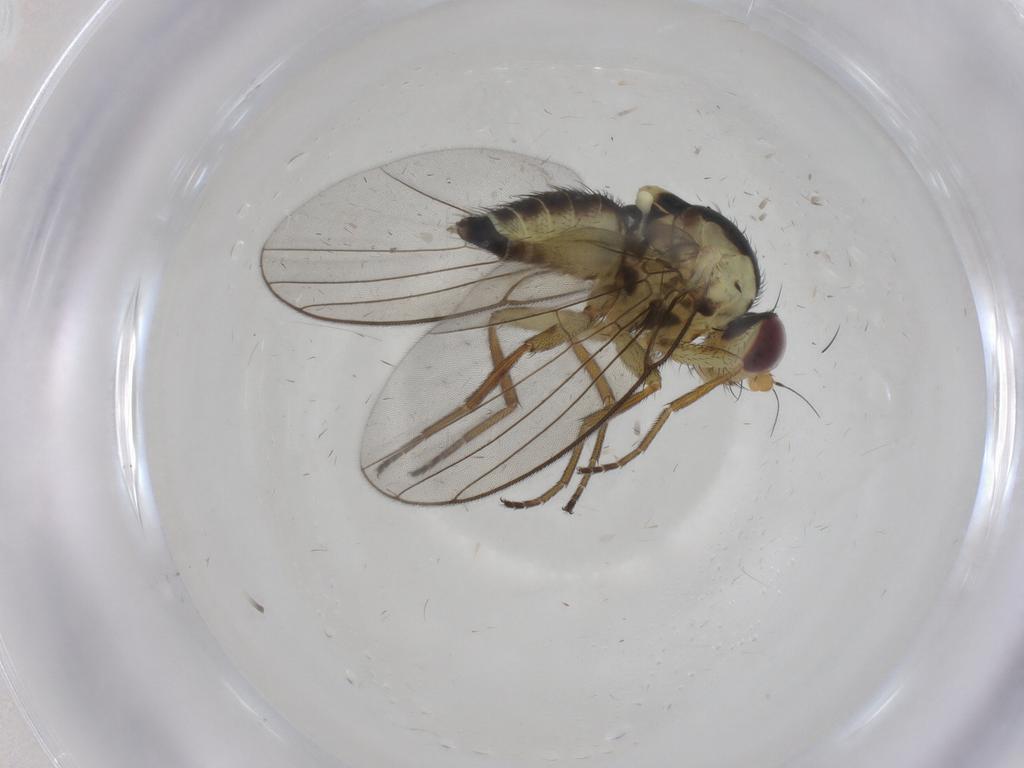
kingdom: Animalia
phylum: Arthropoda
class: Insecta
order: Diptera
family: Agromyzidae
